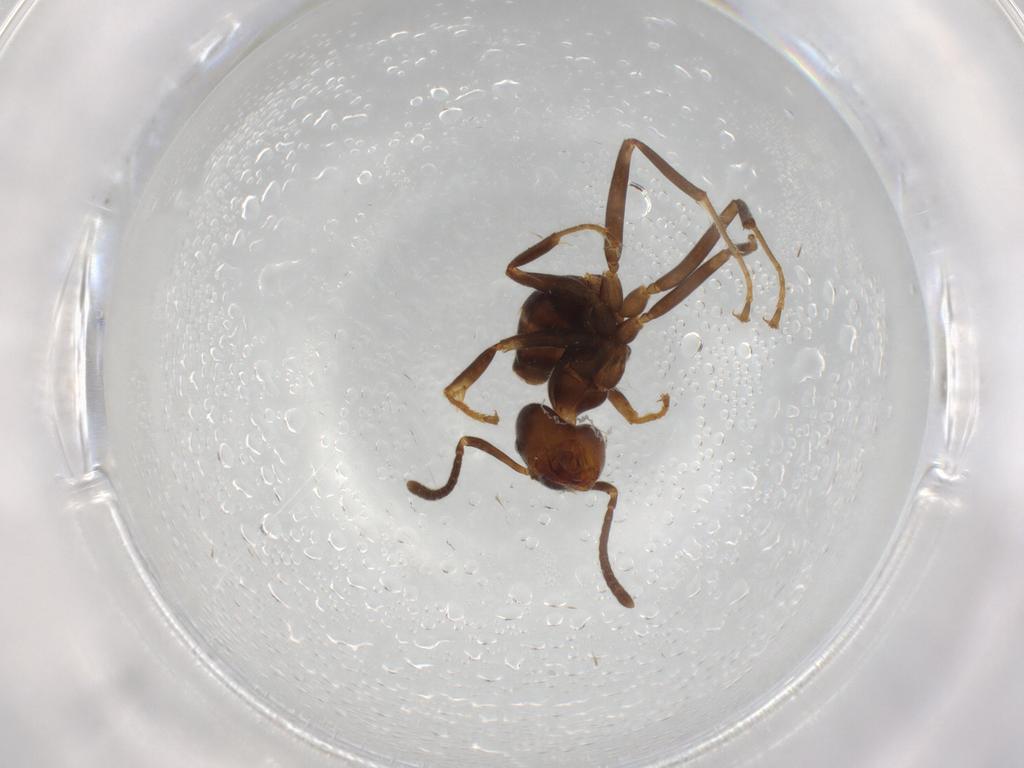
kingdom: Animalia
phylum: Arthropoda
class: Insecta
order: Hymenoptera
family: Formicidae
